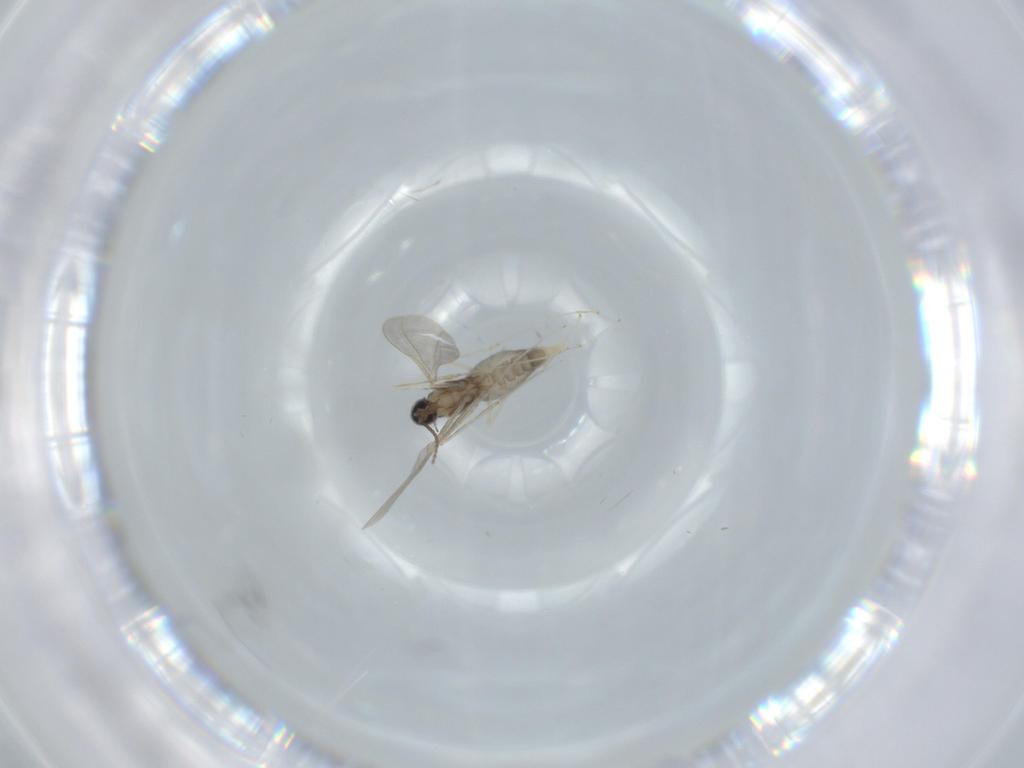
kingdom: Animalia
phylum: Arthropoda
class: Insecta
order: Diptera
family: Cecidomyiidae
